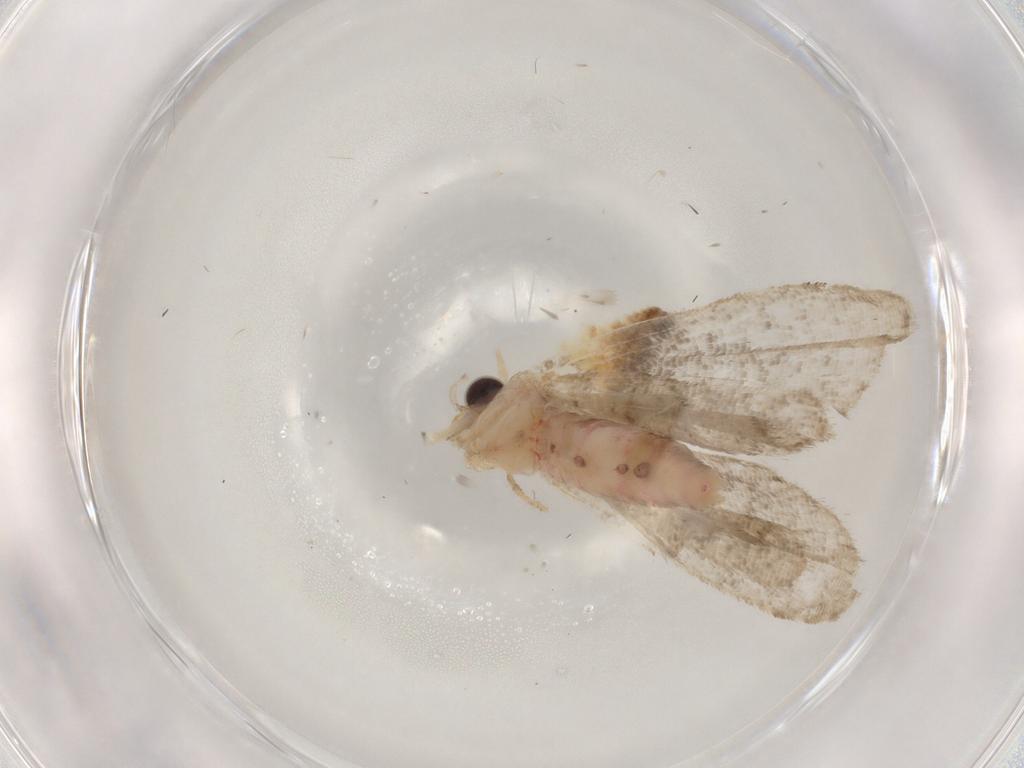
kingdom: Animalia
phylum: Arthropoda
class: Insecta
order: Lepidoptera
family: Erebidae
